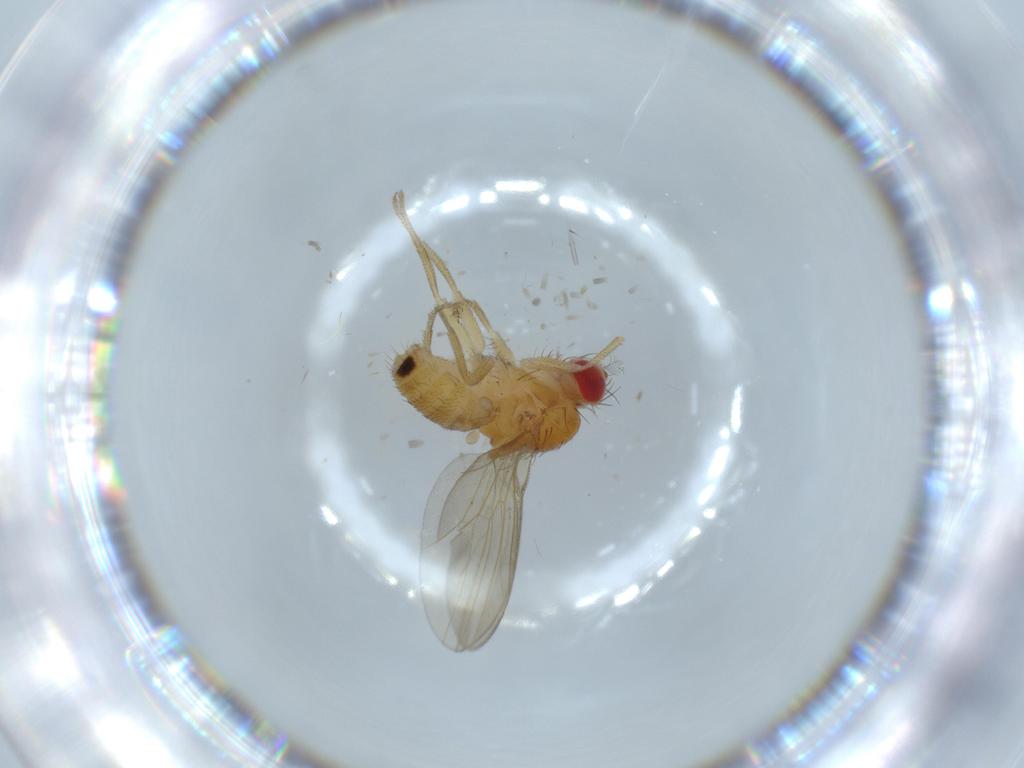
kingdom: Animalia
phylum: Arthropoda
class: Insecta
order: Diptera
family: Drosophilidae
